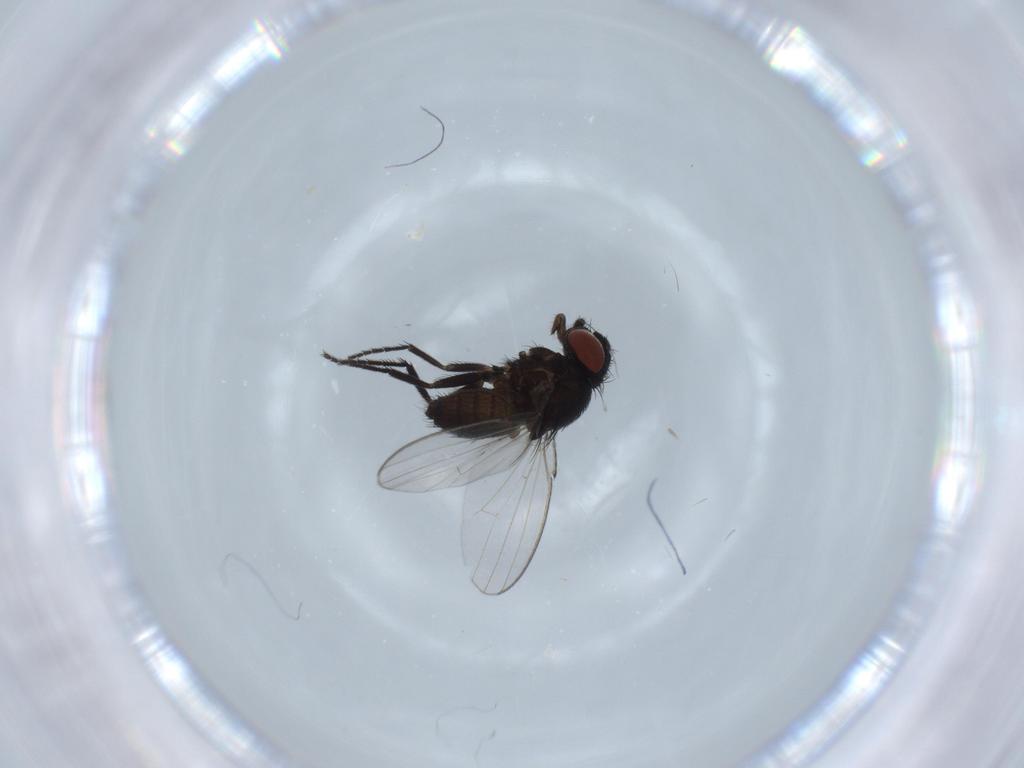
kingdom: Animalia
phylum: Arthropoda
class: Insecta
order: Diptera
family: Milichiidae
